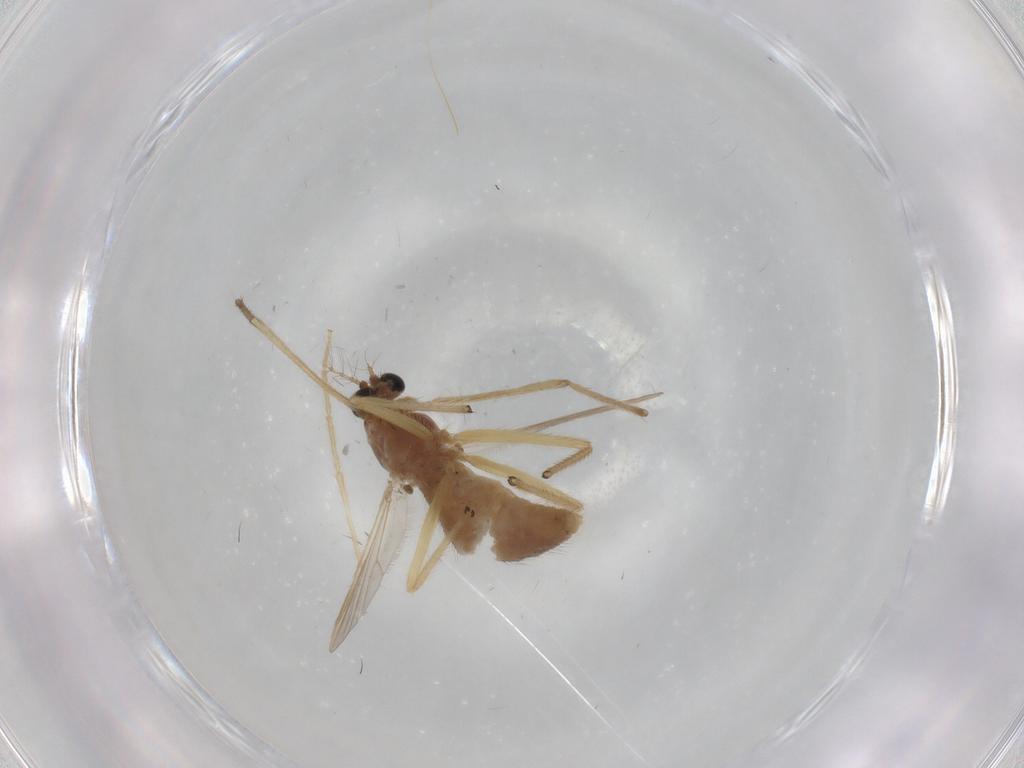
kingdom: Animalia
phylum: Arthropoda
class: Insecta
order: Diptera
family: Chironomidae
